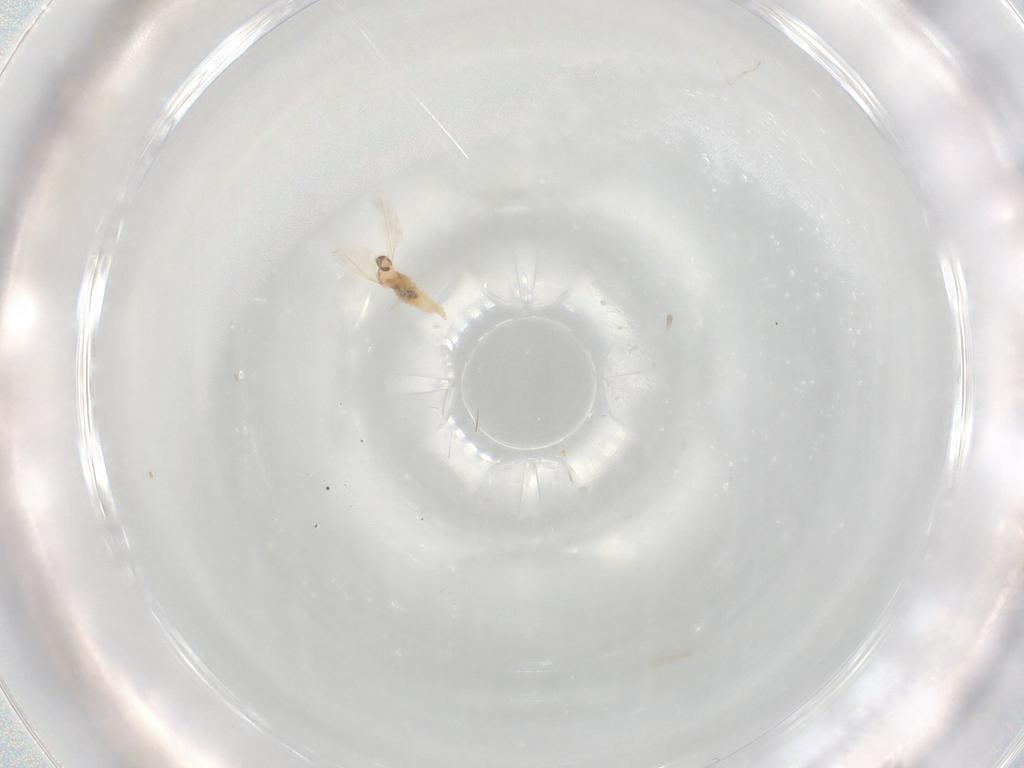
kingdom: Animalia
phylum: Arthropoda
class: Insecta
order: Diptera
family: Cecidomyiidae
